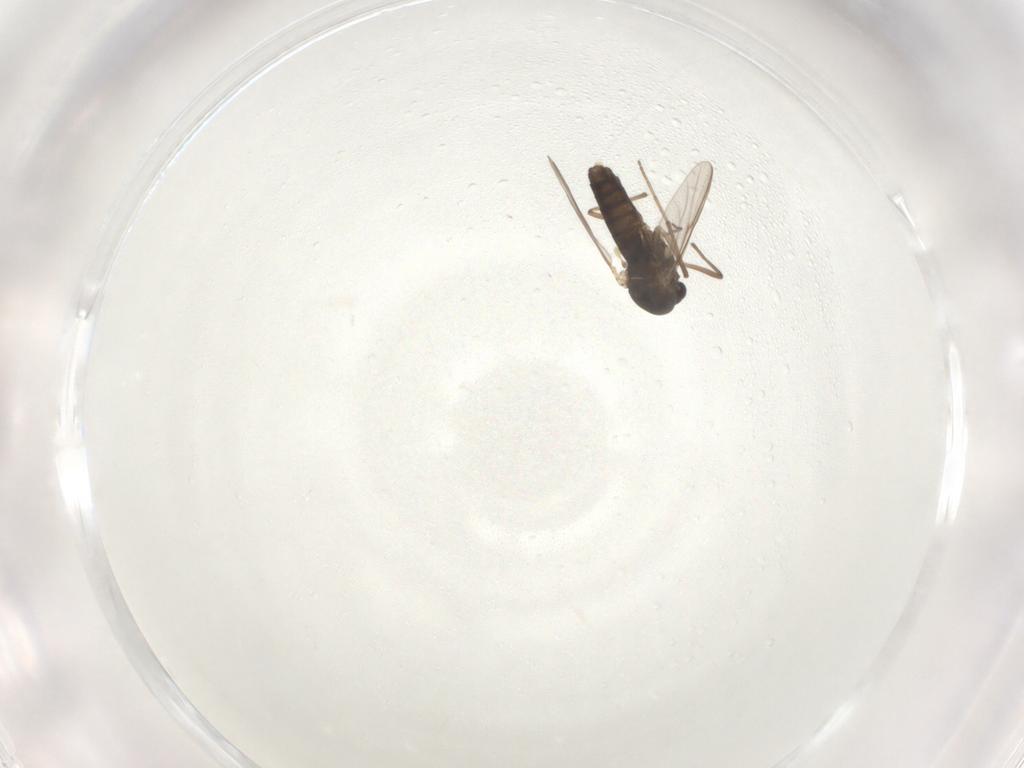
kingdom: Animalia
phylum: Arthropoda
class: Insecta
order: Diptera
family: Chironomidae
